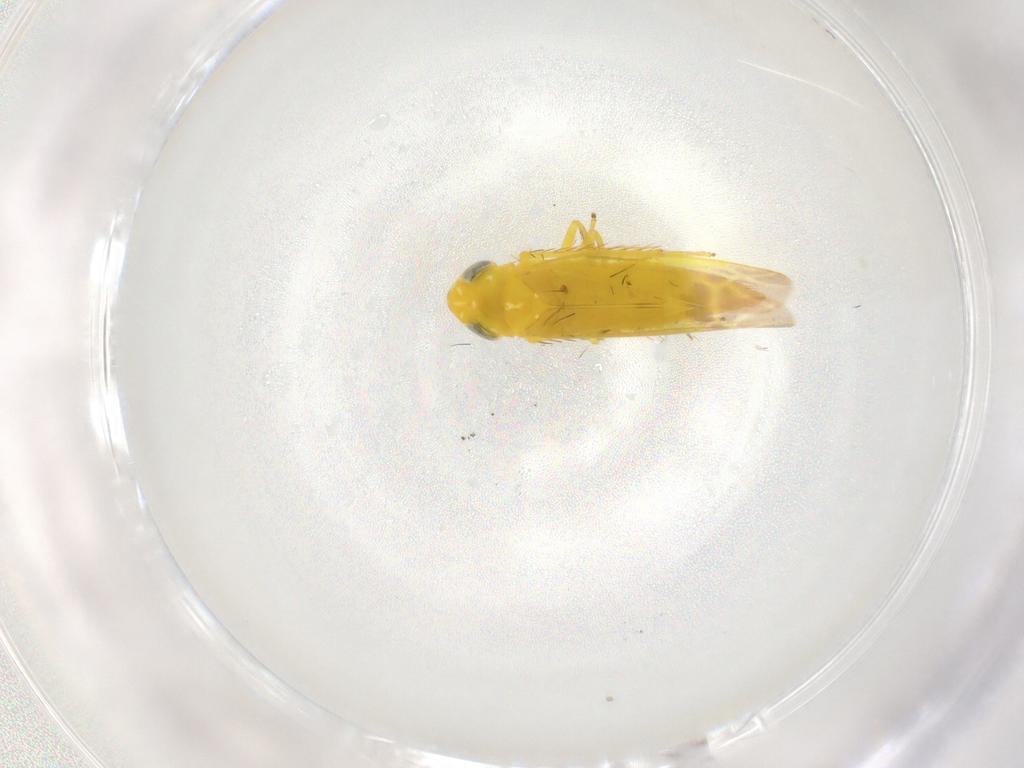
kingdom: Animalia
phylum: Arthropoda
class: Insecta
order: Hemiptera
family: Cicadellidae
